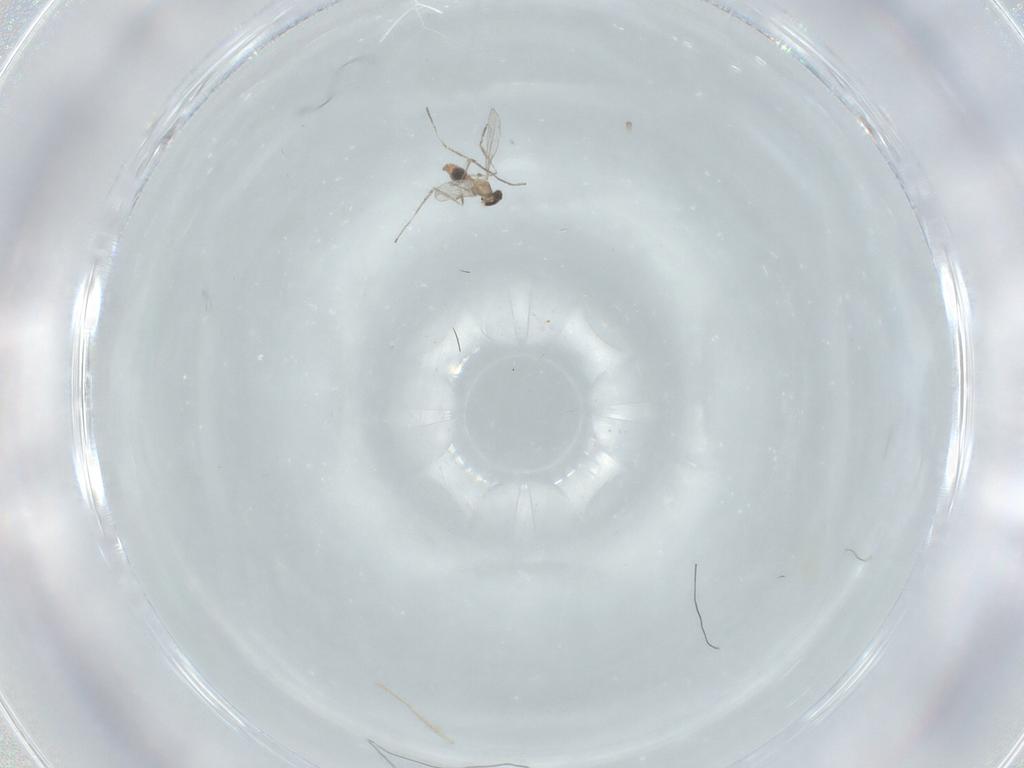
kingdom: Animalia
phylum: Arthropoda
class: Insecta
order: Diptera
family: Cecidomyiidae
